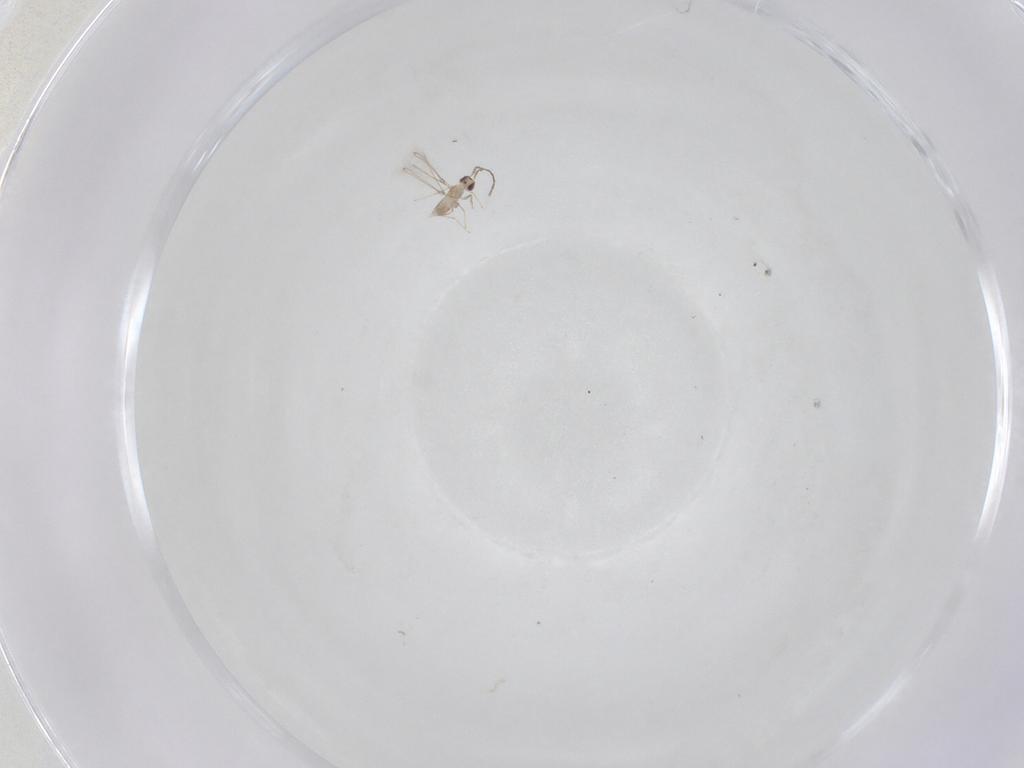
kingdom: Animalia
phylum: Arthropoda
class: Insecta
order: Hymenoptera
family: Mymaridae
